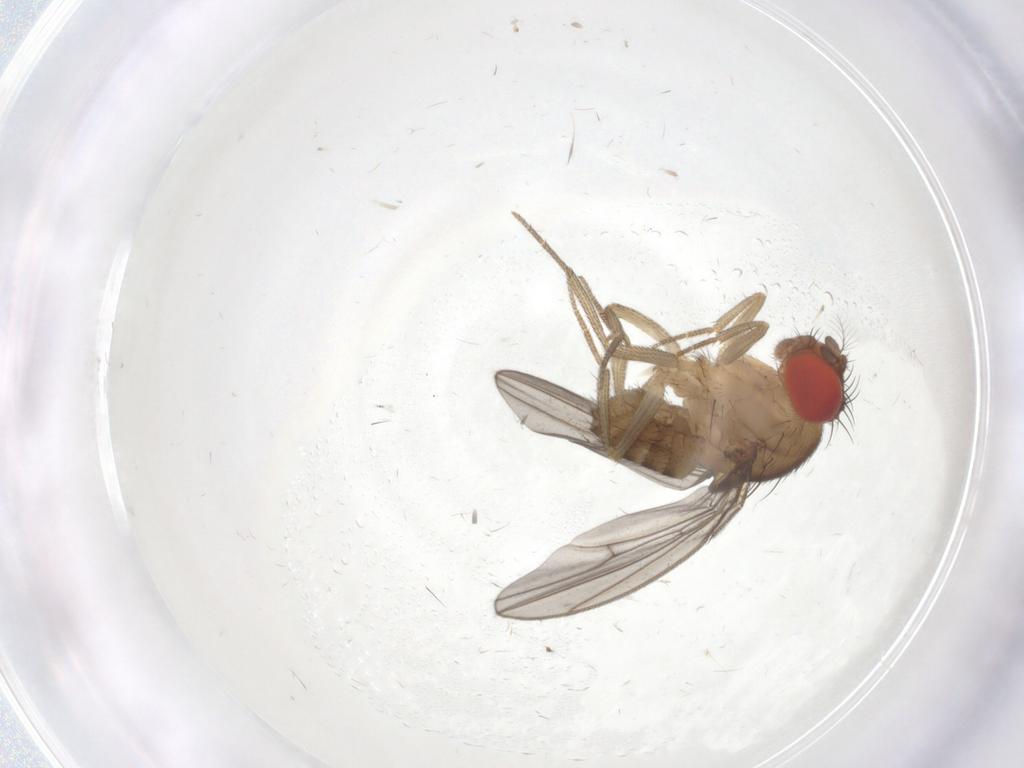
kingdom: Animalia
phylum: Arthropoda
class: Insecta
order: Diptera
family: Drosophilidae
